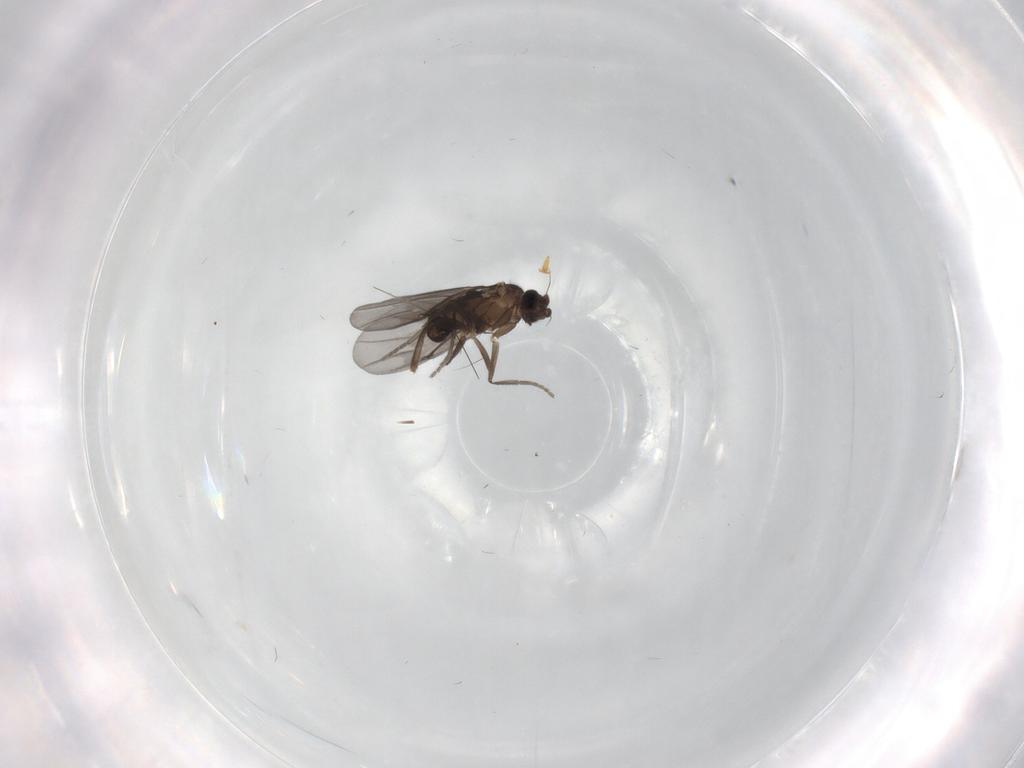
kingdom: Animalia
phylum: Arthropoda
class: Insecta
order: Diptera
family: Phoridae
